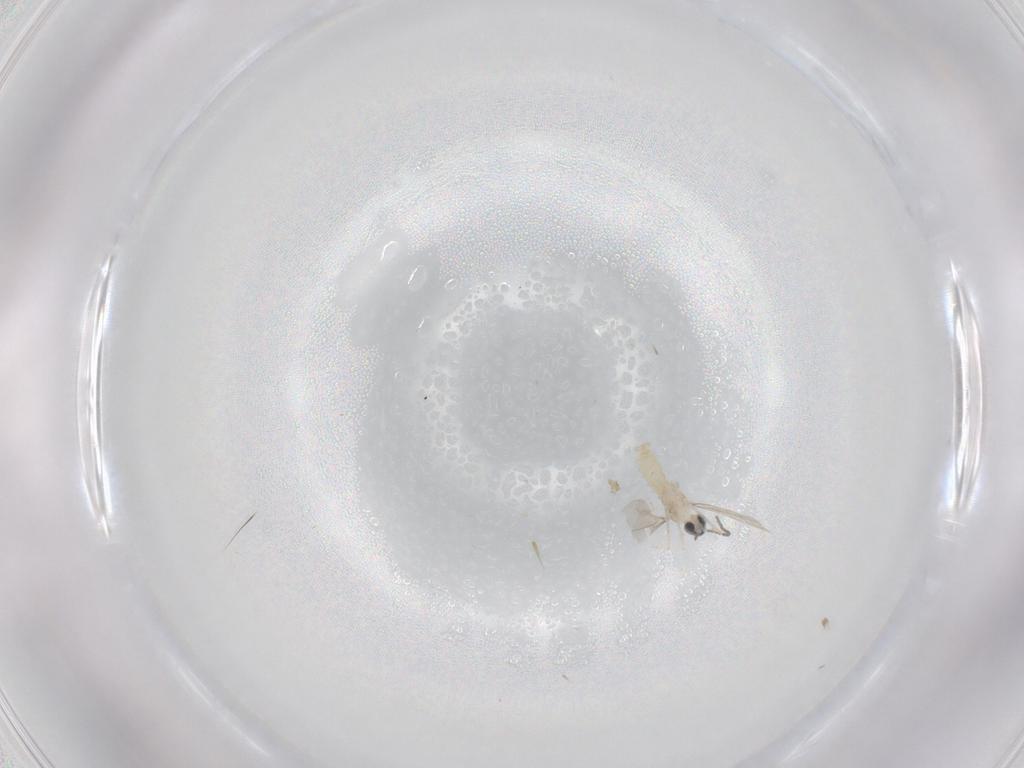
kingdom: Animalia
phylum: Arthropoda
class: Insecta
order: Diptera
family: Cecidomyiidae
